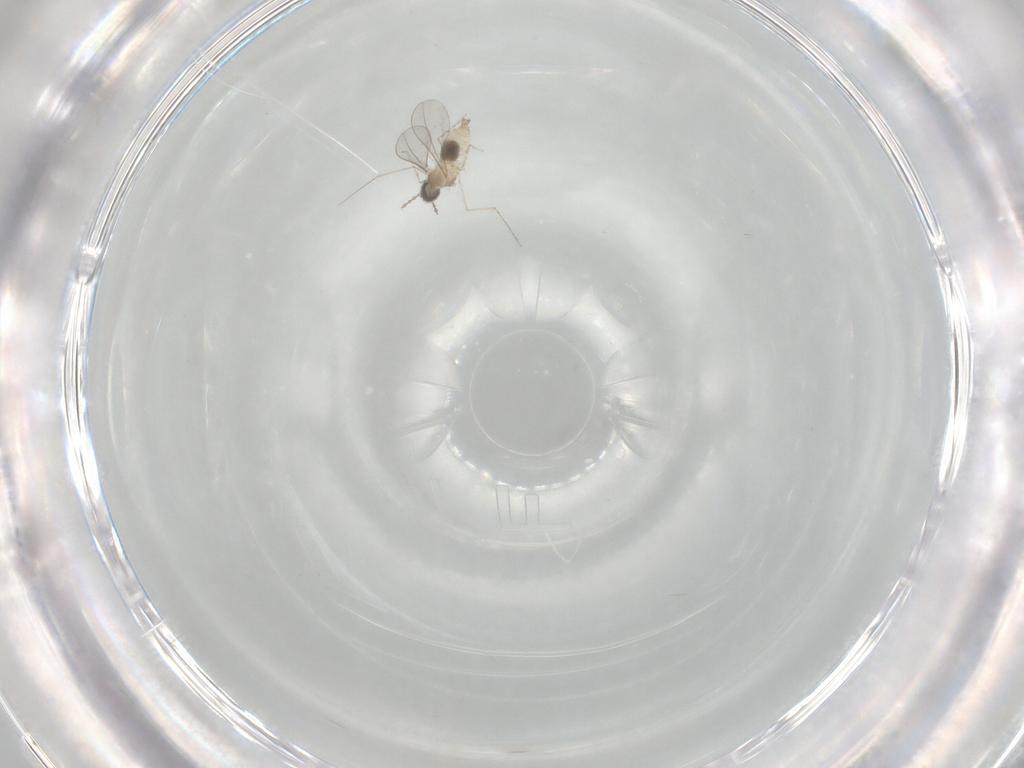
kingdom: Animalia
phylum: Arthropoda
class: Insecta
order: Diptera
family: Cecidomyiidae
